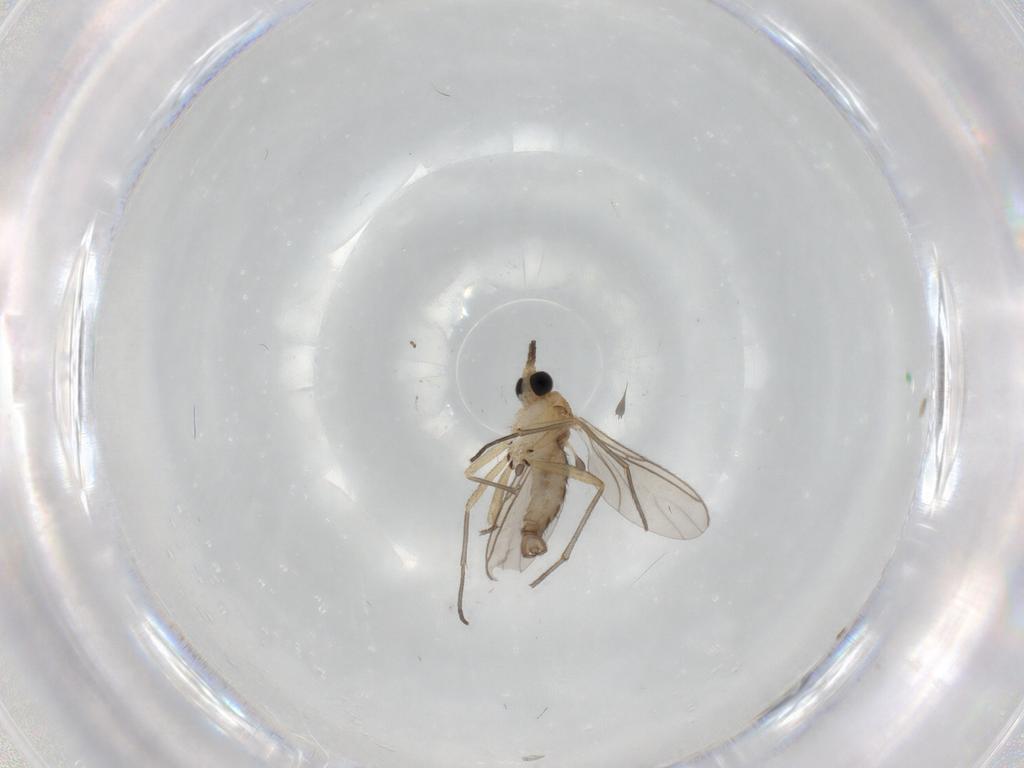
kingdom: Animalia
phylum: Arthropoda
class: Insecta
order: Diptera
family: Ceratopogonidae
